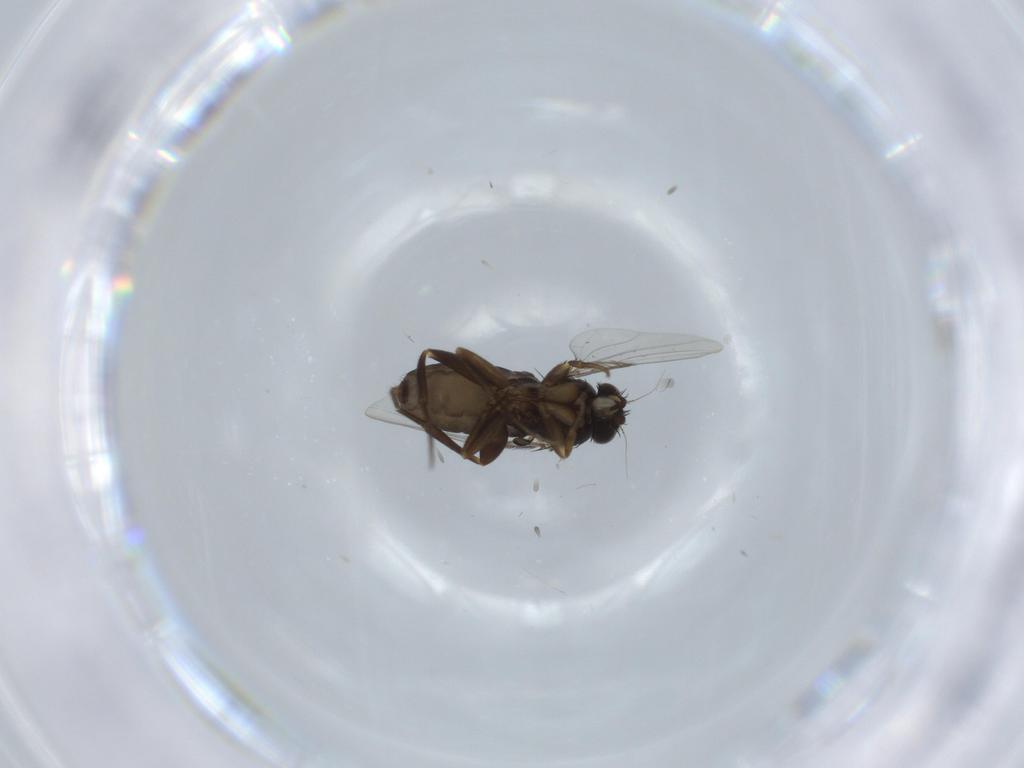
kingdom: Animalia
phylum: Arthropoda
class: Insecta
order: Diptera
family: Phoridae
